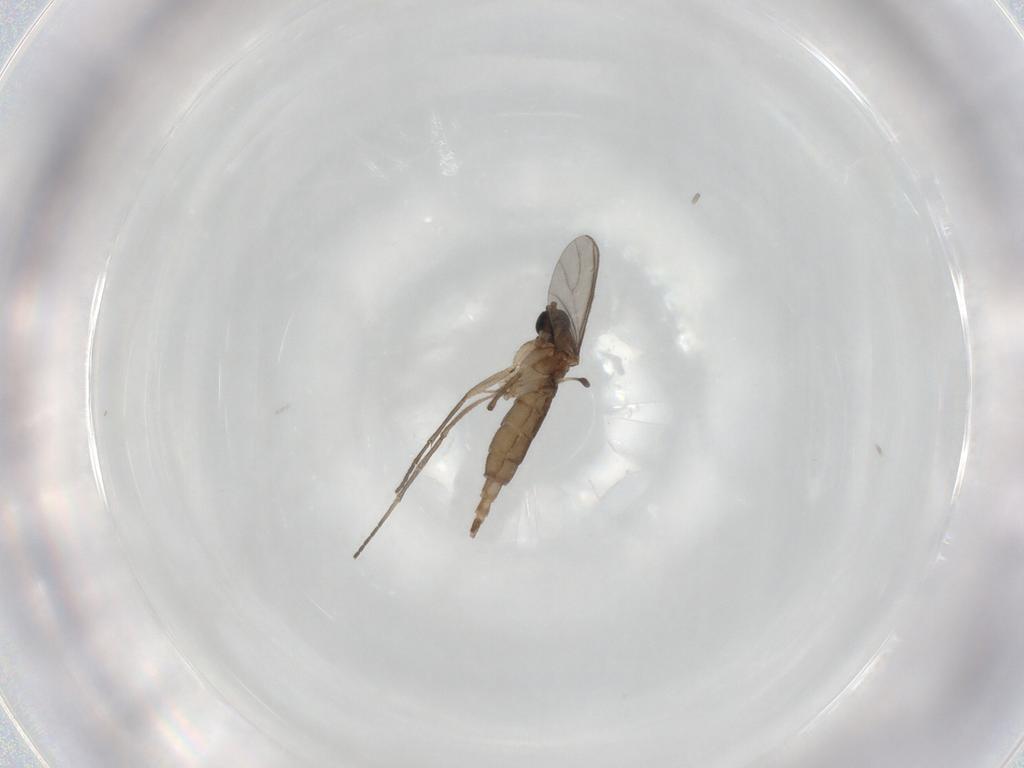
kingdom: Animalia
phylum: Arthropoda
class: Insecta
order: Diptera
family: Sciaridae
